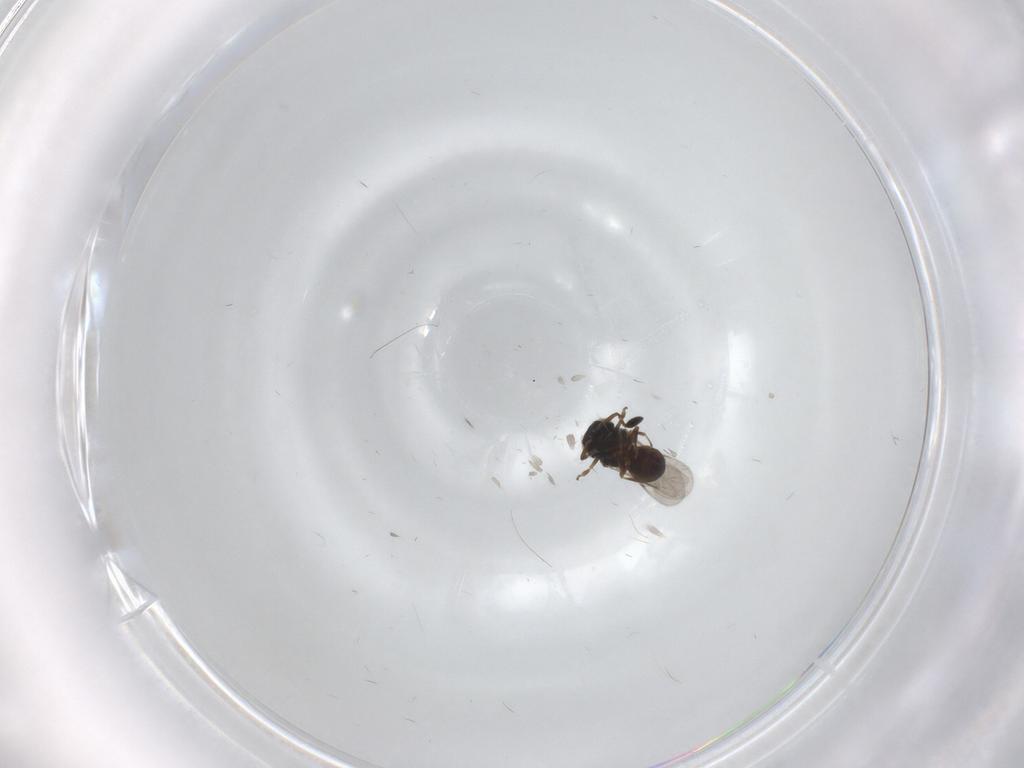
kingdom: Animalia
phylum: Arthropoda
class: Insecta
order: Hymenoptera
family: Scelionidae
